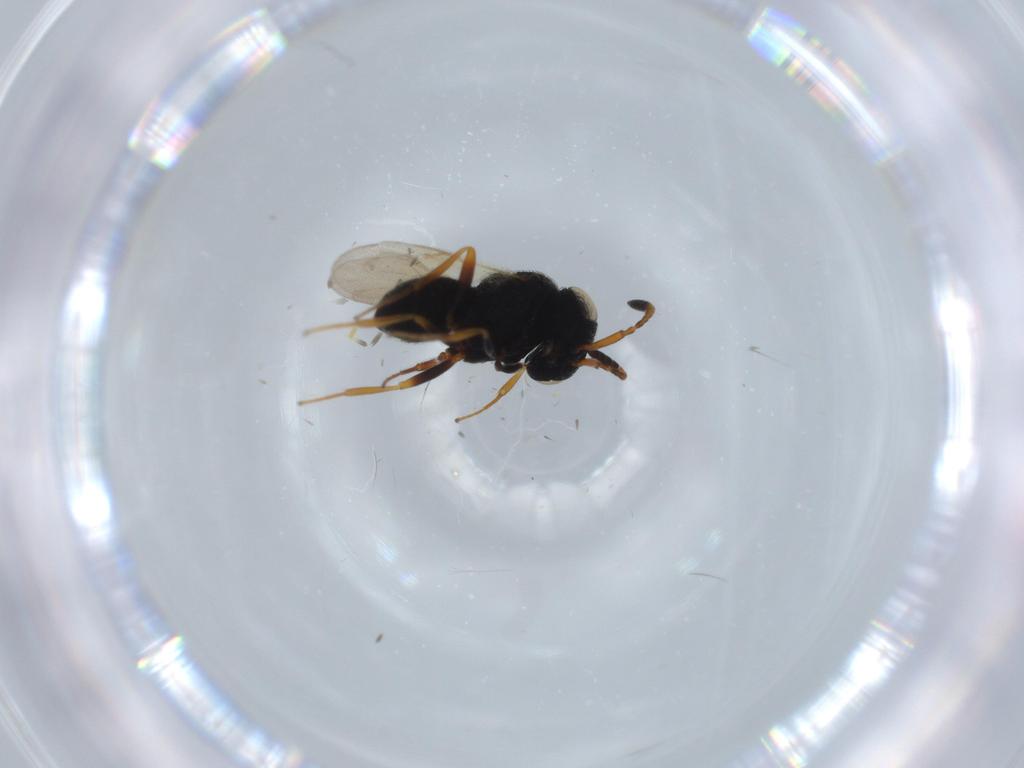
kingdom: Animalia
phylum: Arthropoda
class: Insecta
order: Hymenoptera
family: Scelionidae
